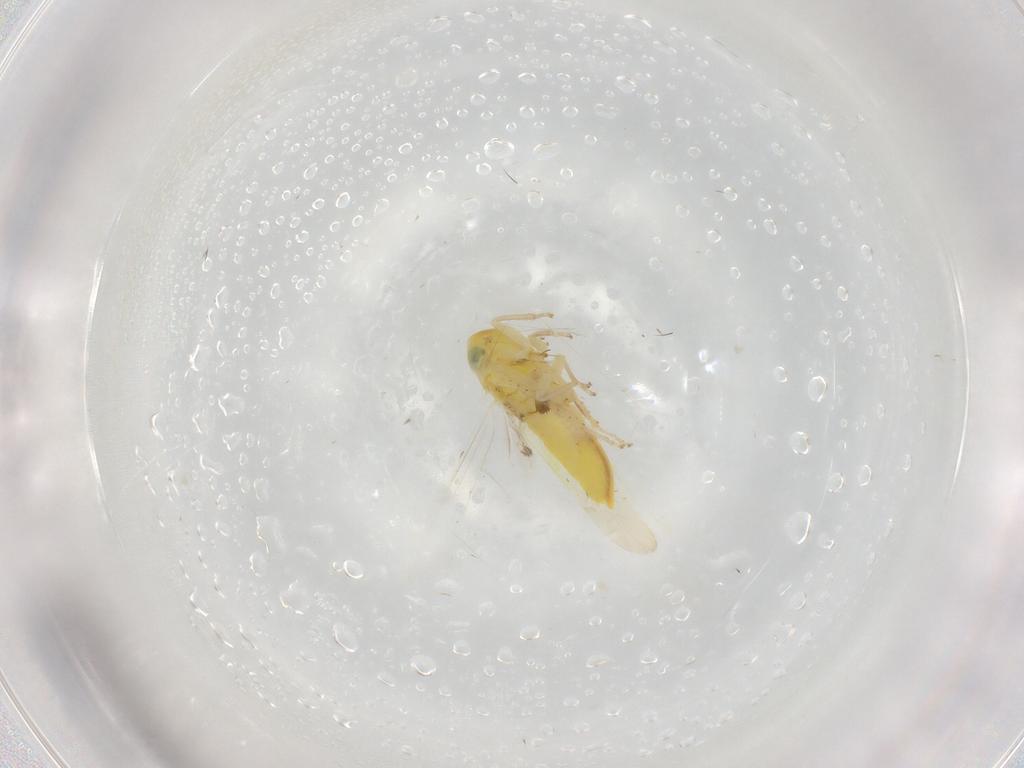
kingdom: Animalia
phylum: Arthropoda
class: Insecta
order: Hemiptera
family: Cicadellidae
